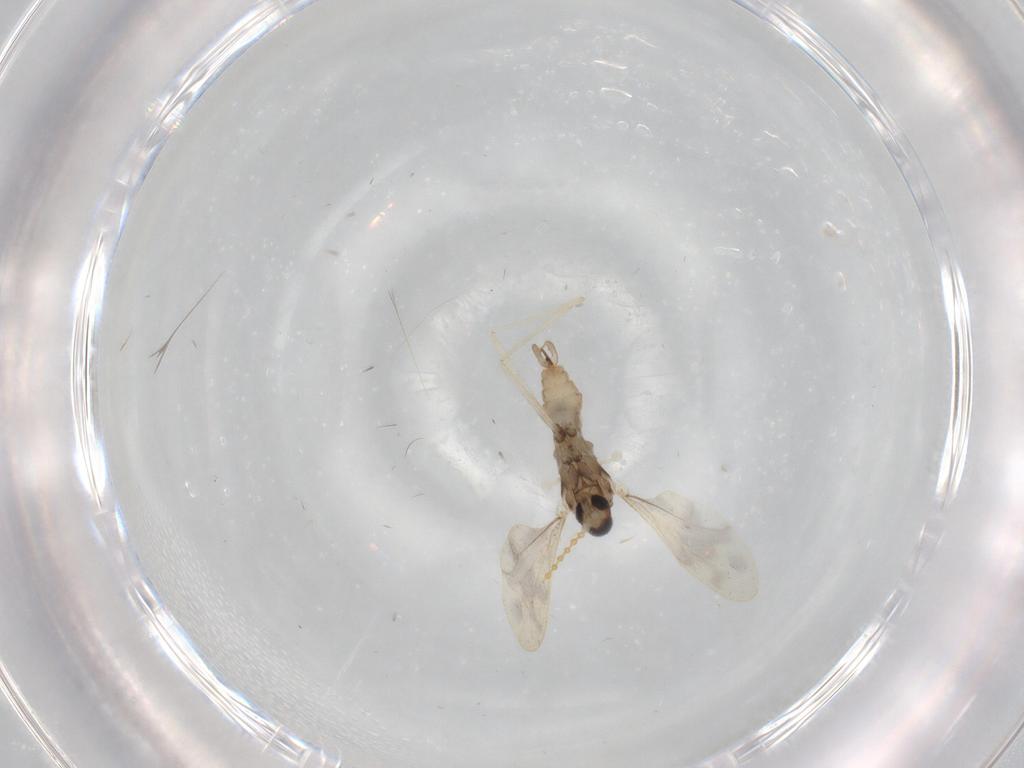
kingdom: Animalia
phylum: Arthropoda
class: Insecta
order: Diptera
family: Cecidomyiidae
